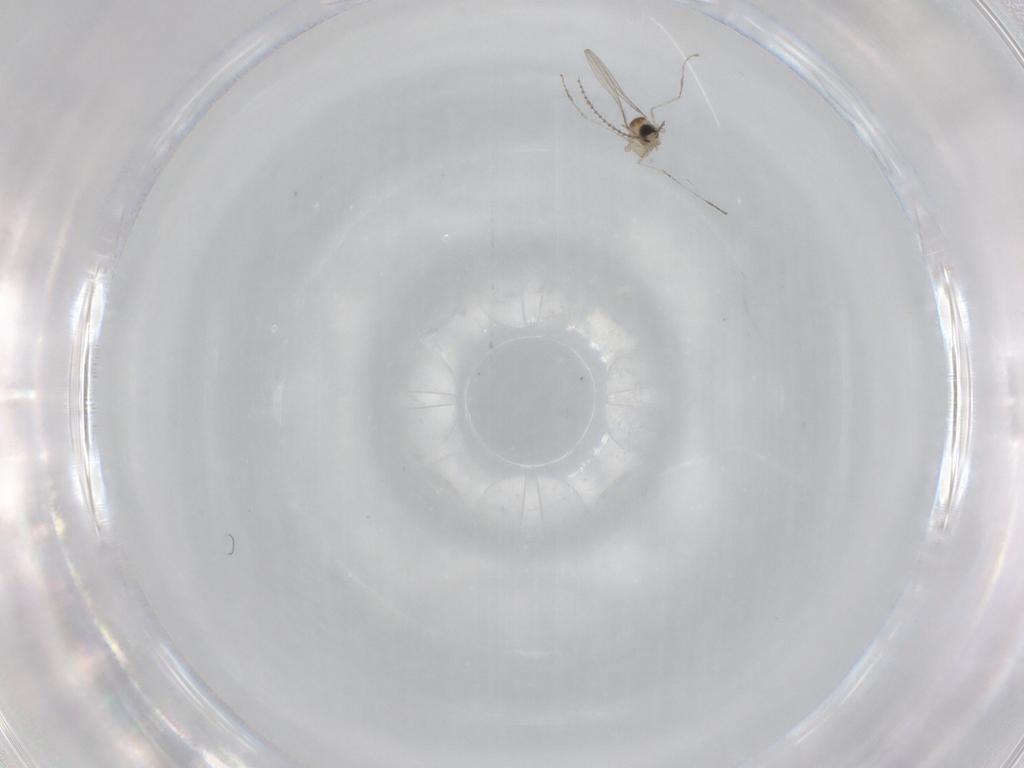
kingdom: Animalia
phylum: Arthropoda
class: Insecta
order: Diptera
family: Cecidomyiidae
